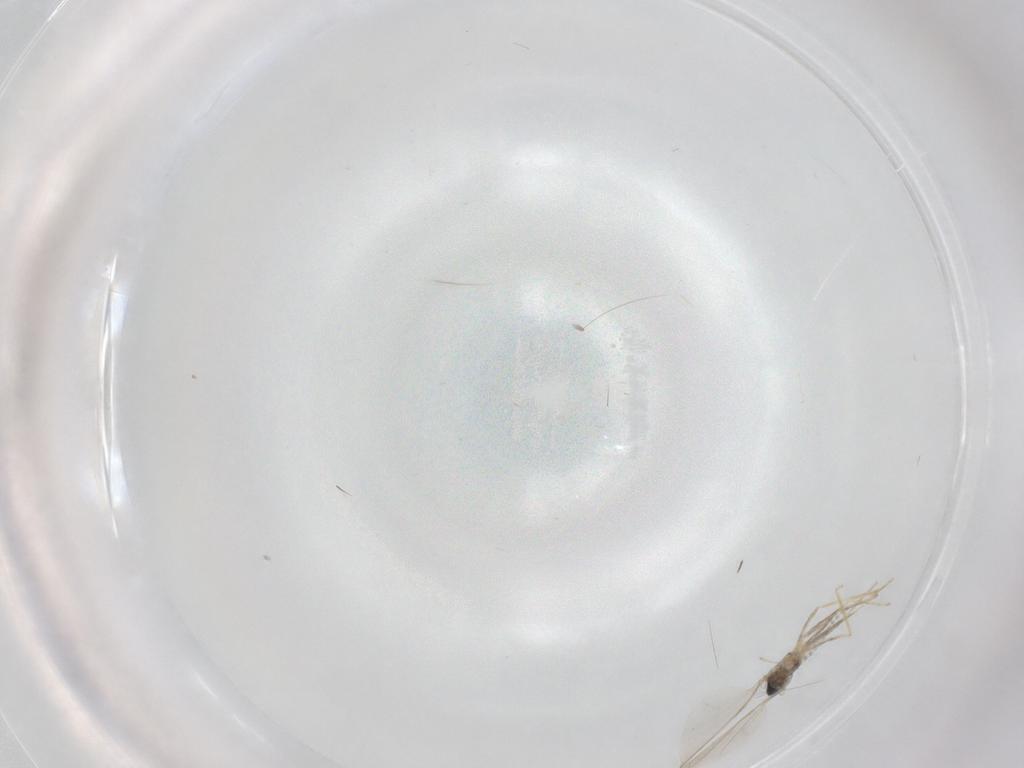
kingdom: Animalia
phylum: Arthropoda
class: Insecta
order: Diptera
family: Chironomidae
